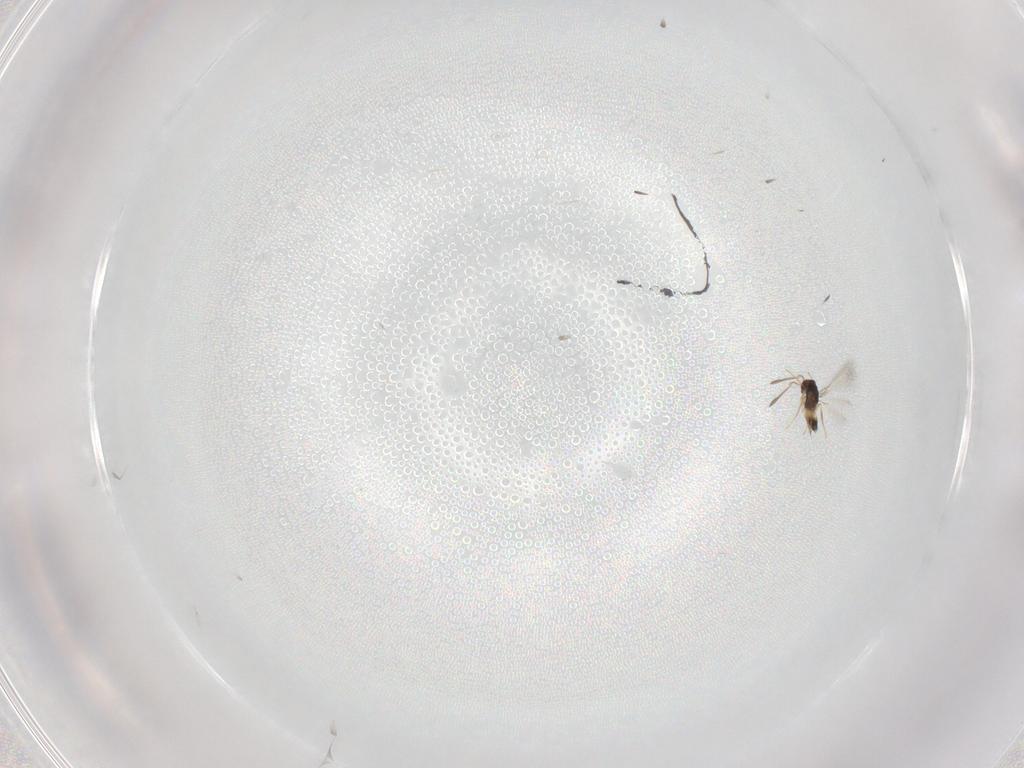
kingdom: Animalia
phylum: Arthropoda
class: Insecta
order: Hymenoptera
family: Mymaridae
